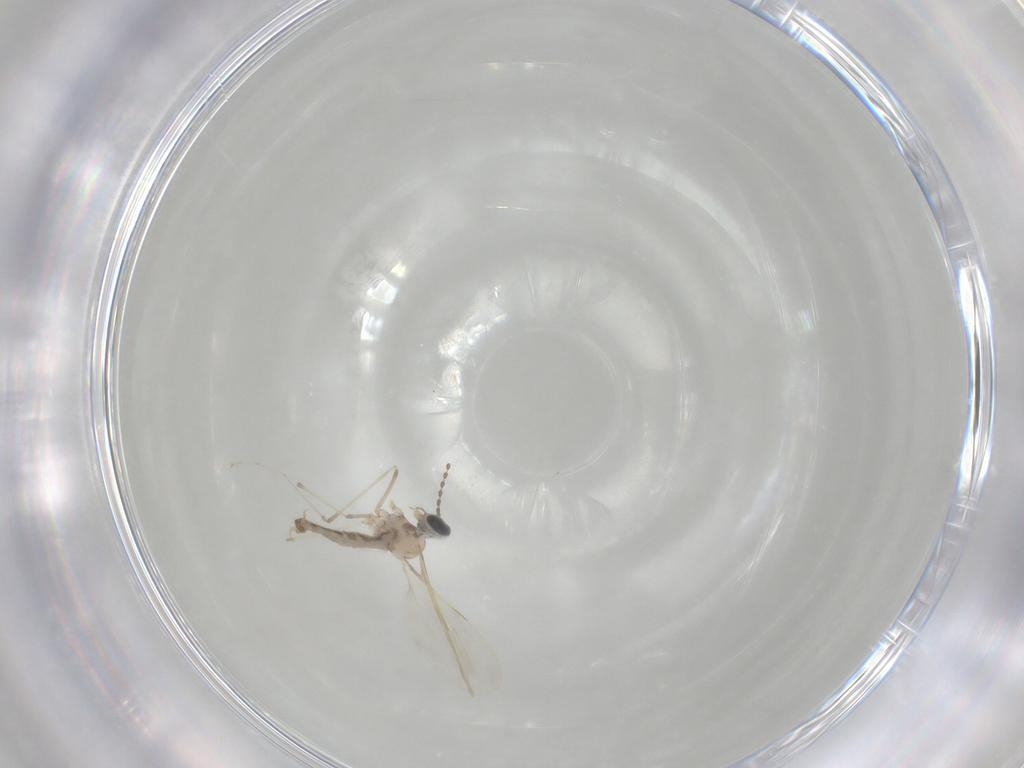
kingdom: Animalia
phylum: Arthropoda
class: Insecta
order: Diptera
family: Cecidomyiidae
